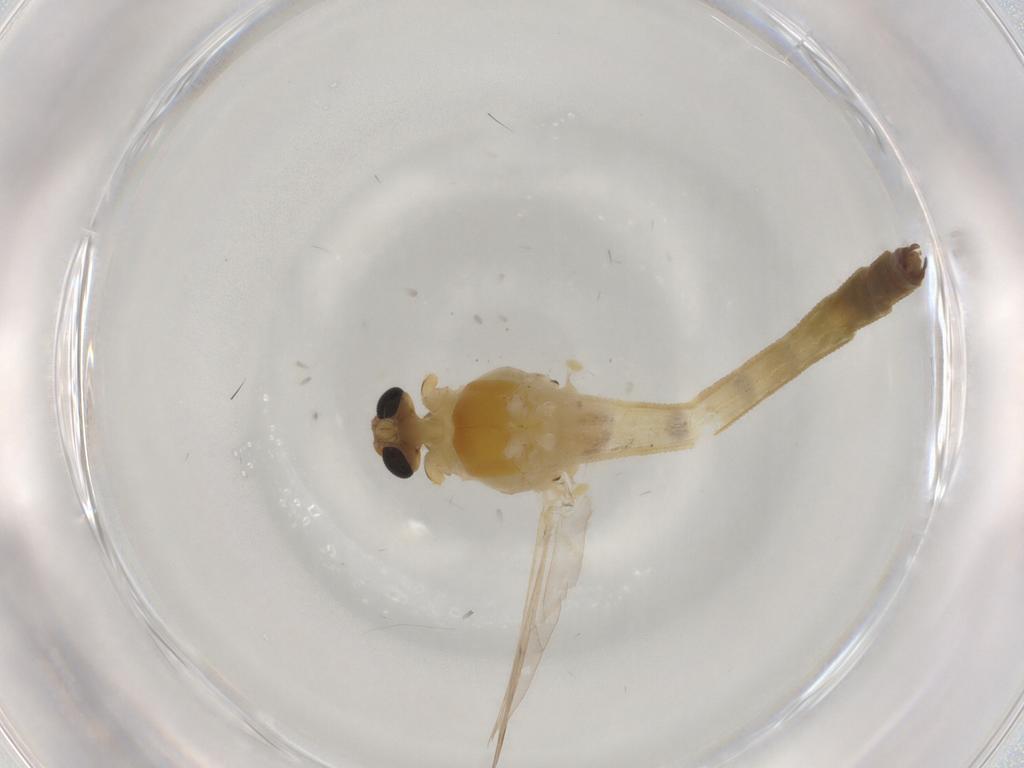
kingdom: Animalia
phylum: Arthropoda
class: Insecta
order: Diptera
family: Ceratopogonidae
